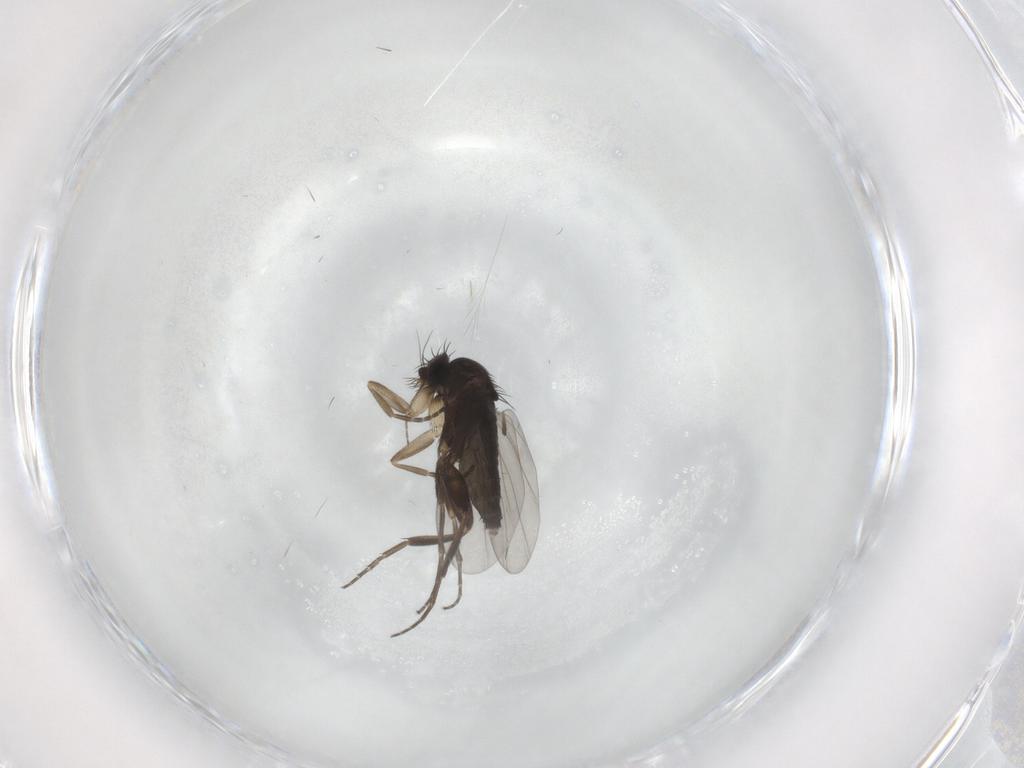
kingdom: Animalia
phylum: Arthropoda
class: Insecta
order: Diptera
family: Phoridae
